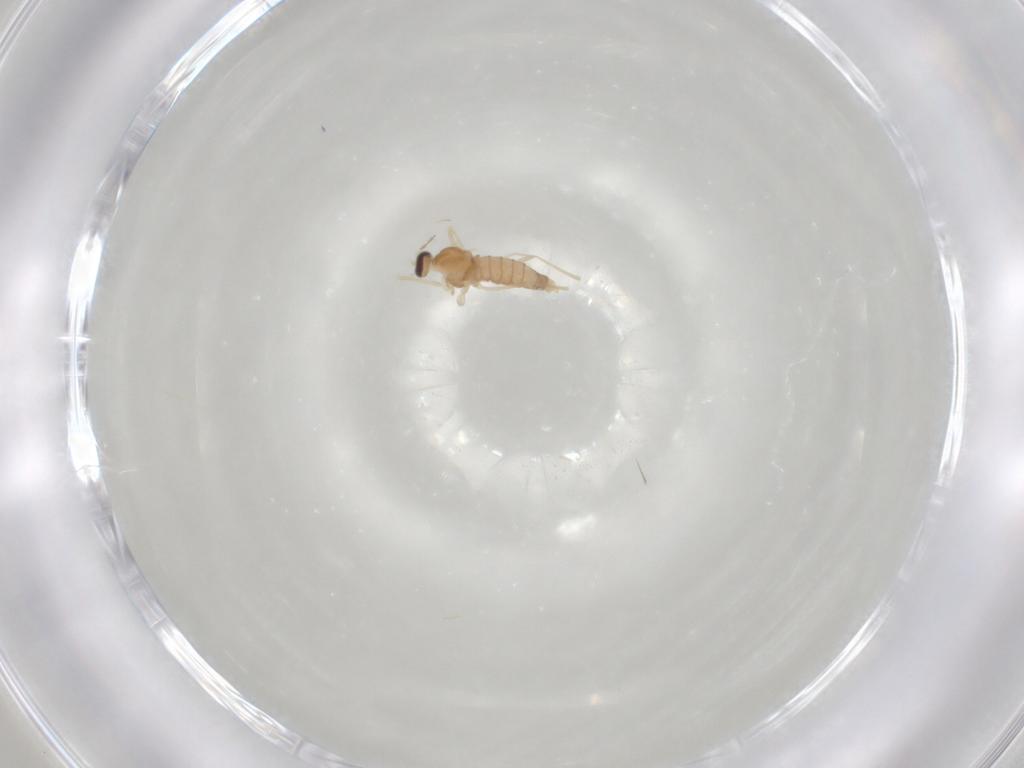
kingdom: Animalia
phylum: Arthropoda
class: Insecta
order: Diptera
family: Cecidomyiidae
